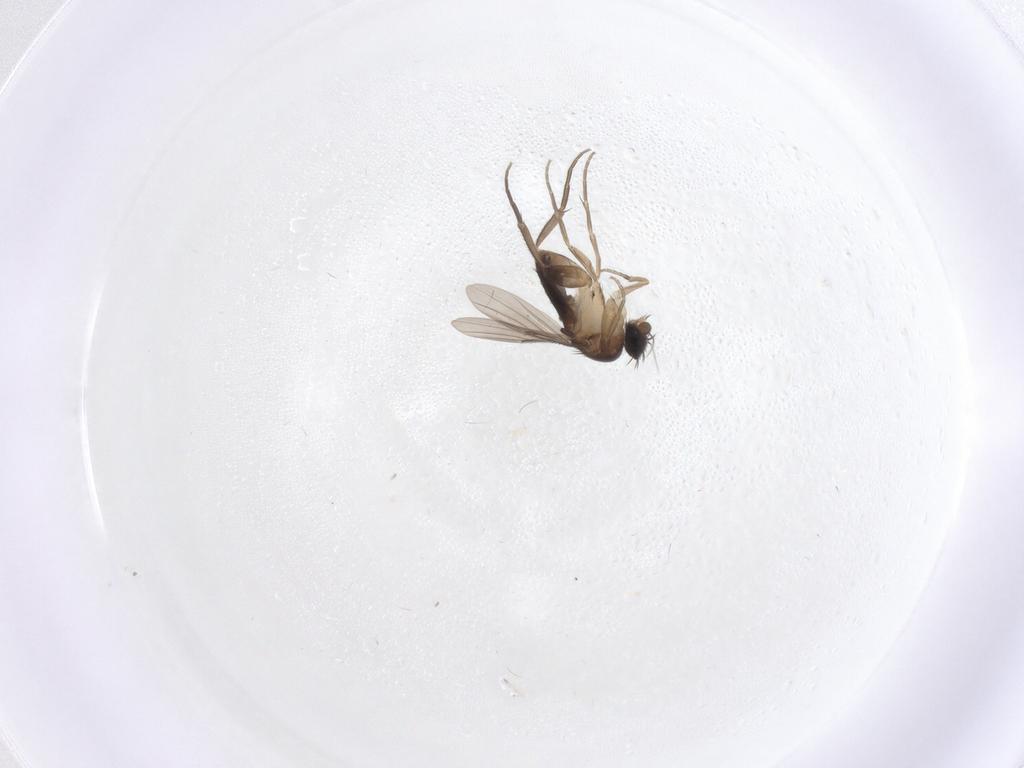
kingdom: Animalia
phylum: Arthropoda
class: Insecta
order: Diptera
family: Phoridae
